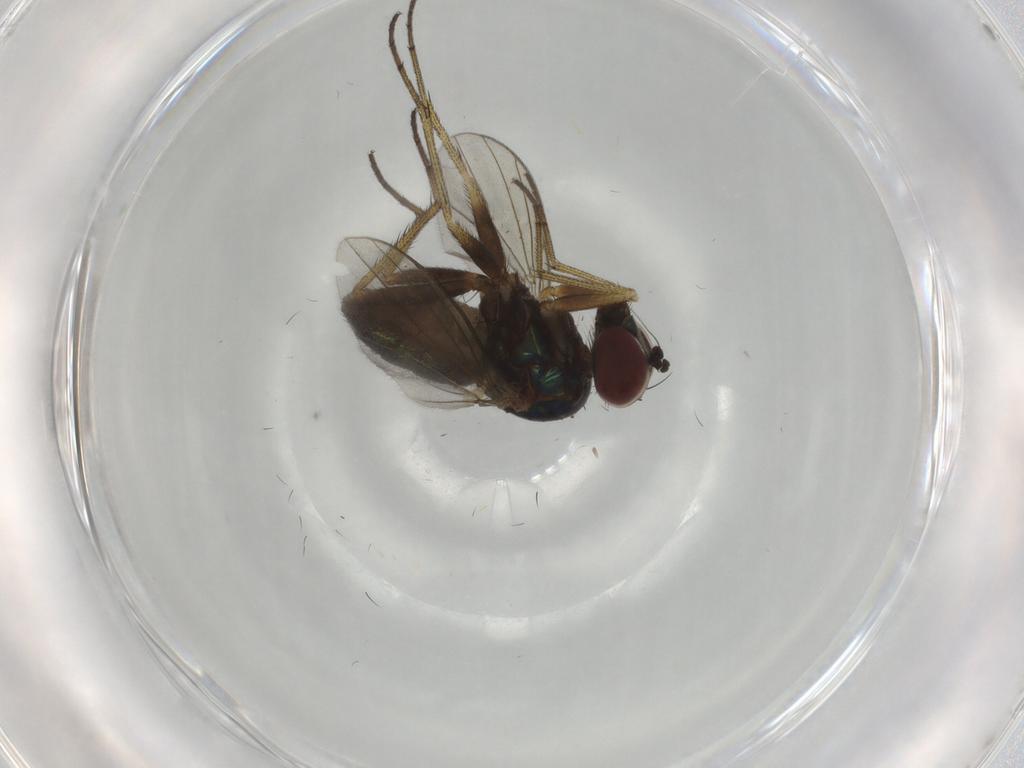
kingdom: Animalia
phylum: Arthropoda
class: Insecta
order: Diptera
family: Dolichopodidae
